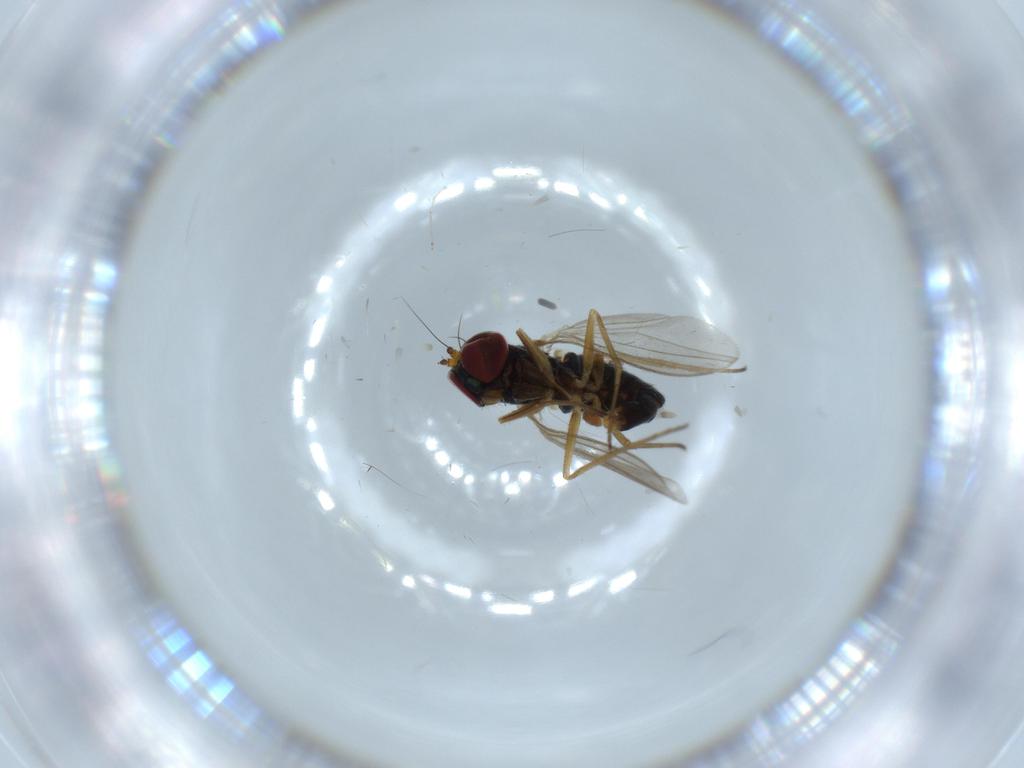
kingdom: Animalia
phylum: Arthropoda
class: Insecta
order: Diptera
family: Dolichopodidae
